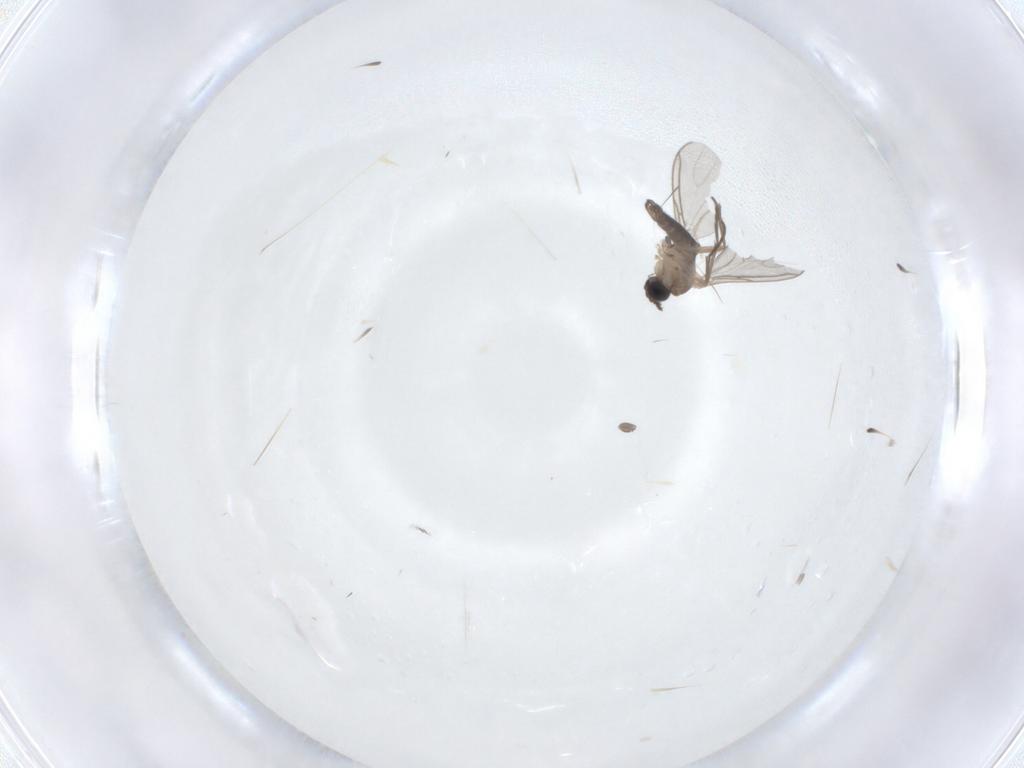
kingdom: Animalia
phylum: Arthropoda
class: Insecta
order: Diptera
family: Sciaridae
